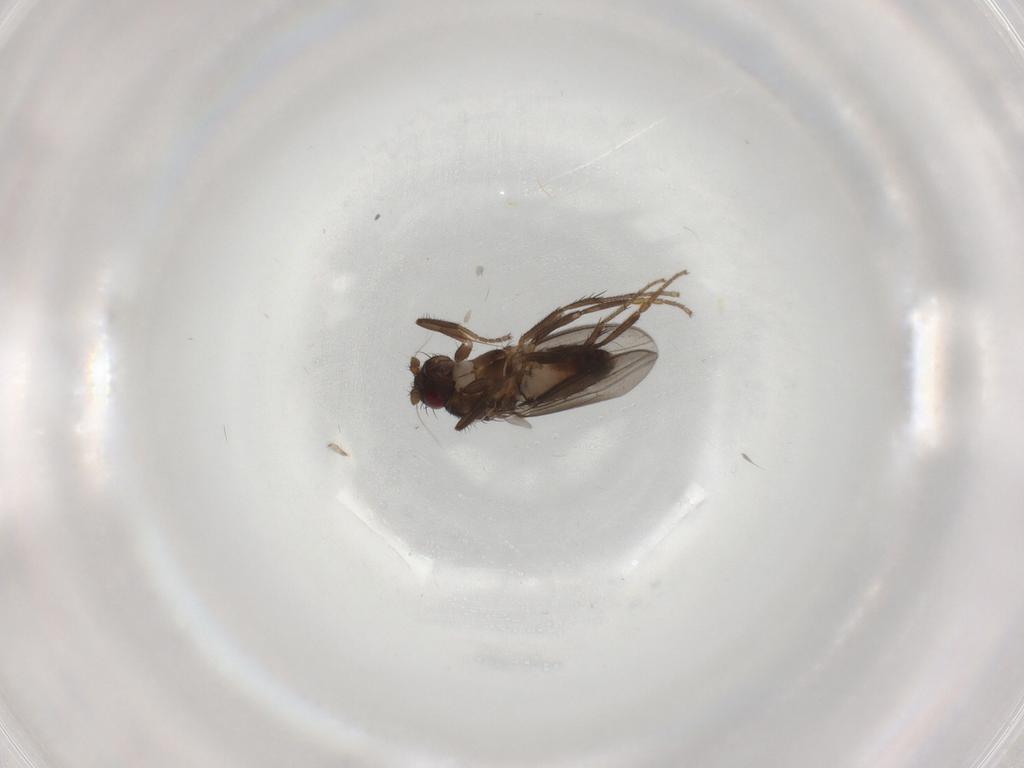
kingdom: Animalia
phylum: Arthropoda
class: Insecta
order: Diptera
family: Sphaeroceridae
